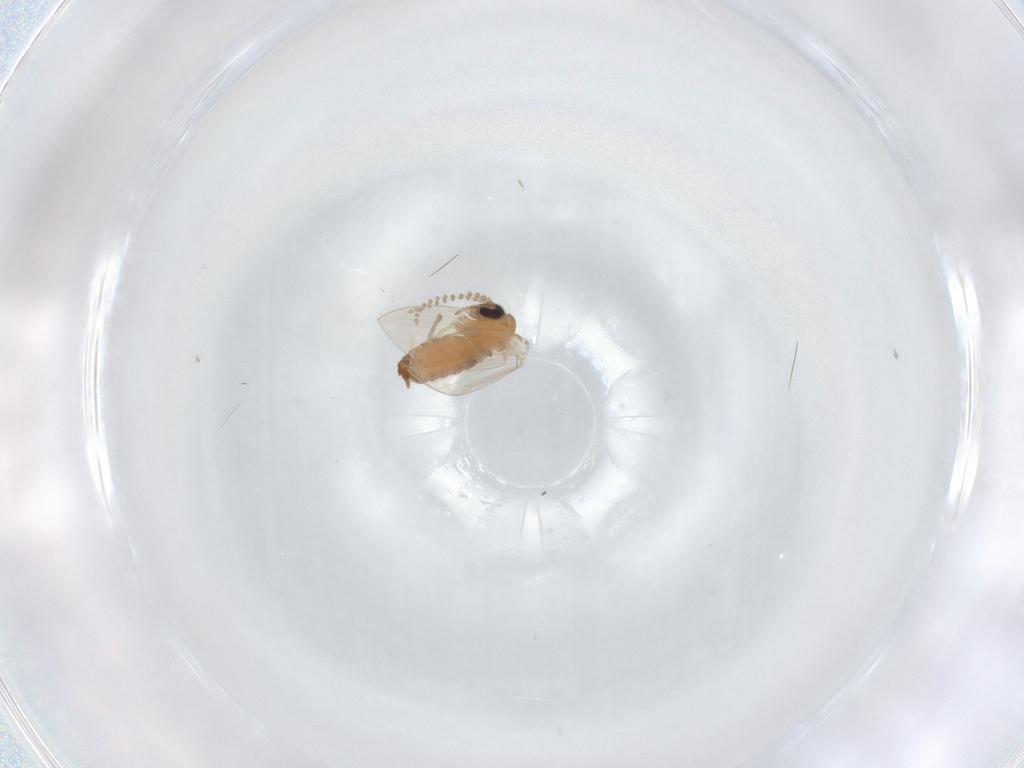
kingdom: Animalia
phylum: Arthropoda
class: Insecta
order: Diptera
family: Psychodidae
